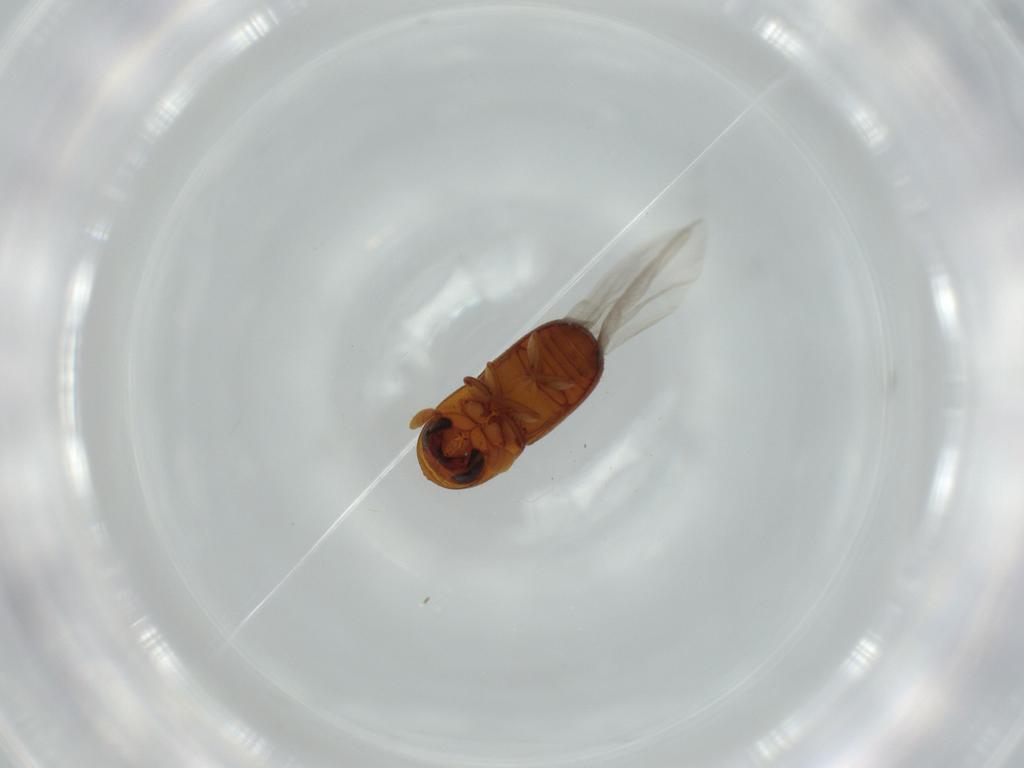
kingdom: Animalia
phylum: Arthropoda
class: Insecta
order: Coleoptera
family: Curculionidae
